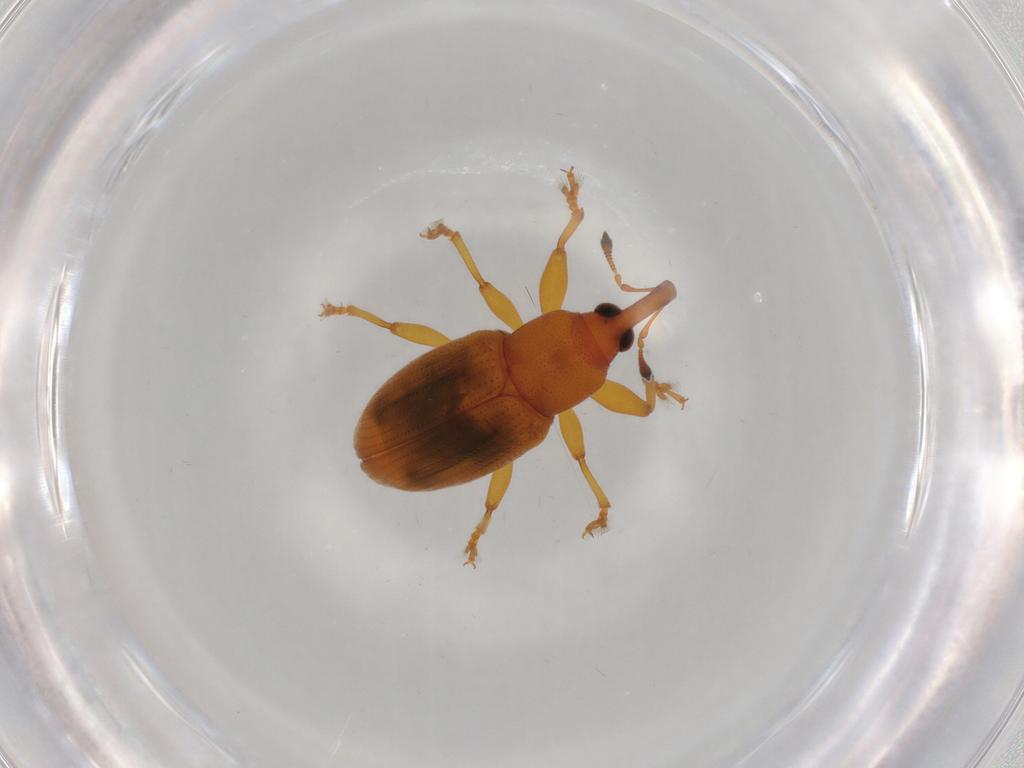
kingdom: Animalia
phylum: Arthropoda
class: Insecta
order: Coleoptera
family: Curculionidae
